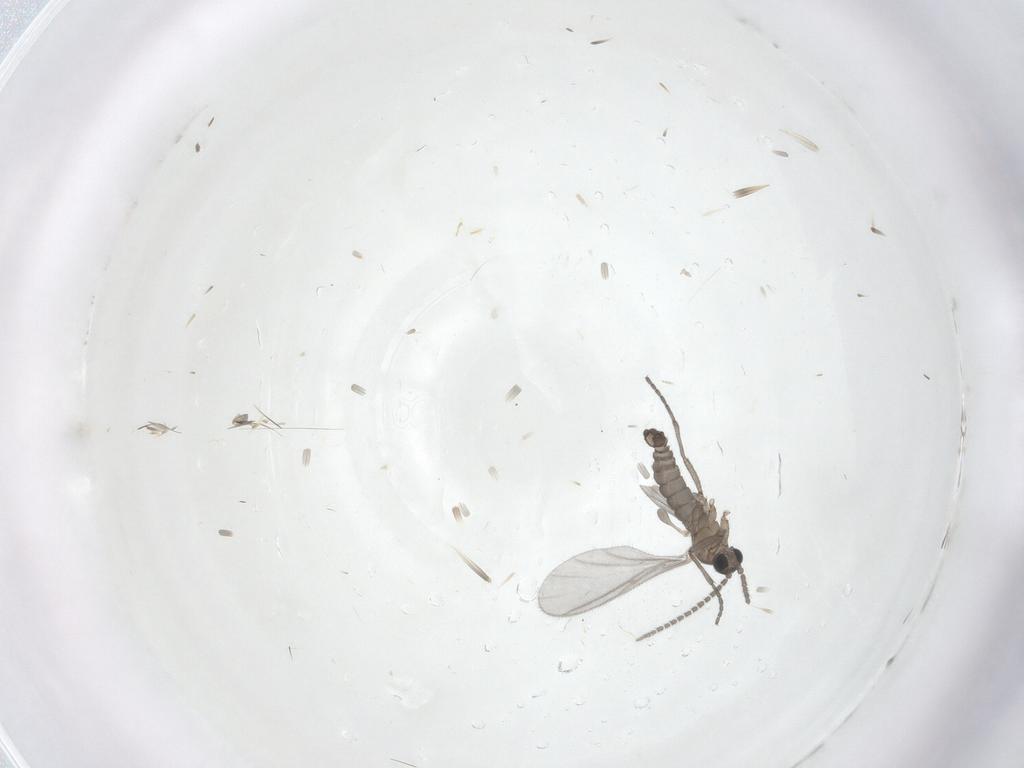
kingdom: Animalia
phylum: Arthropoda
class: Insecta
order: Diptera
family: Sciaridae
